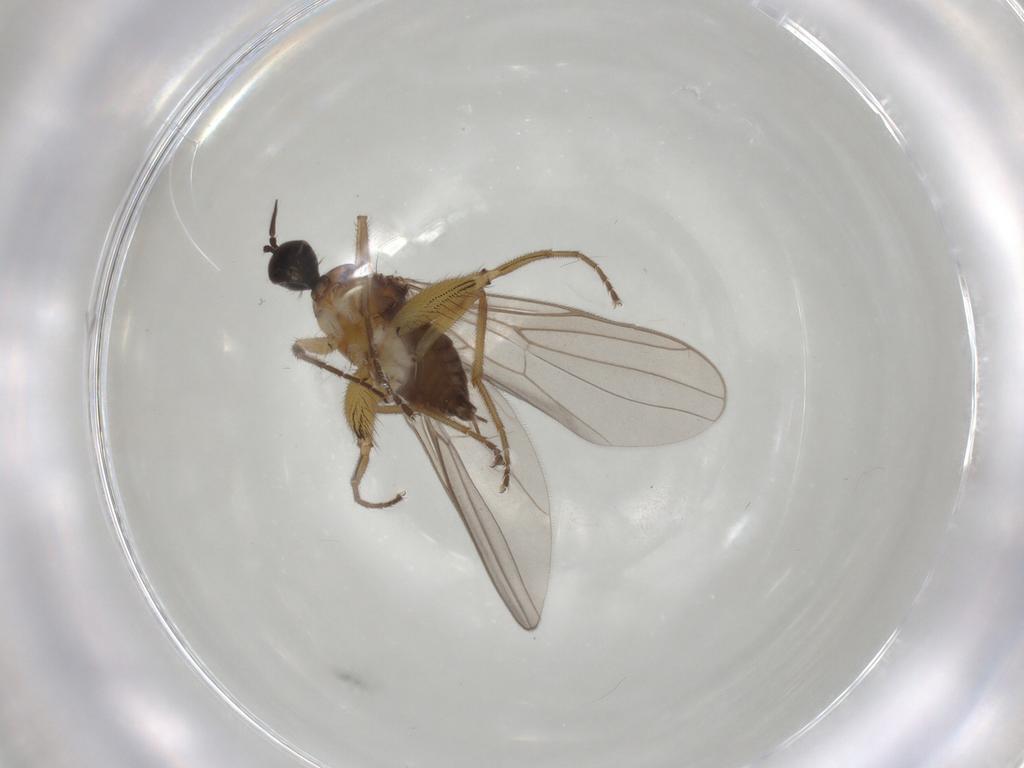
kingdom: Animalia
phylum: Arthropoda
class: Insecta
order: Diptera
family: Hybotidae
